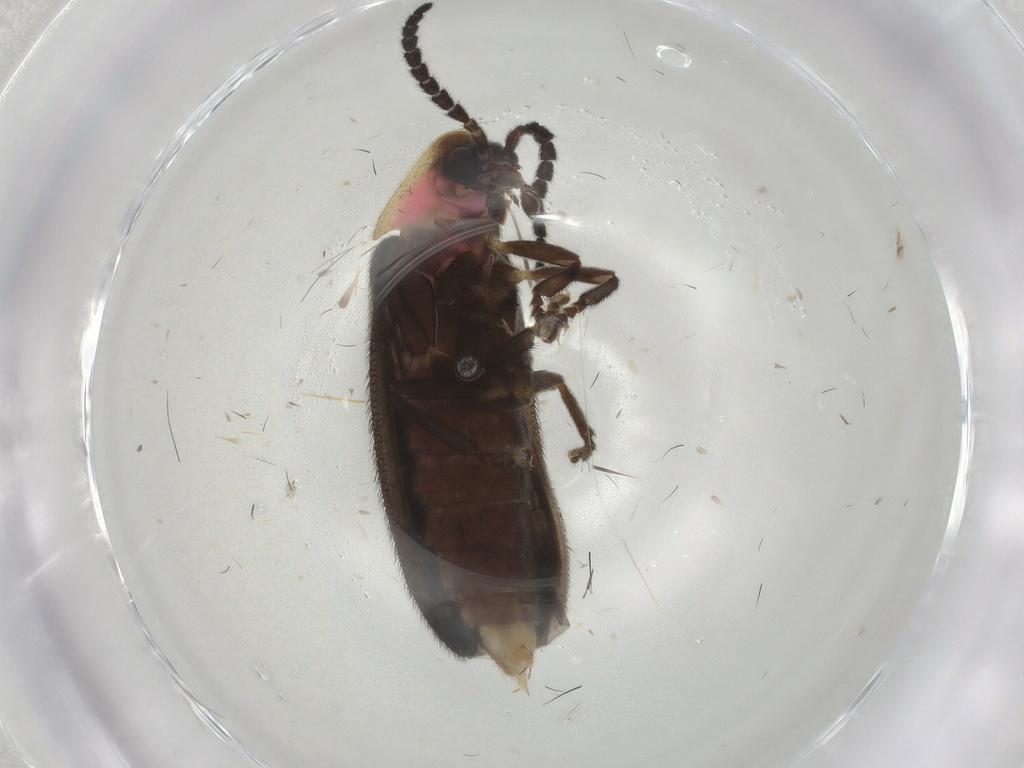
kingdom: Animalia
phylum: Arthropoda
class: Insecta
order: Coleoptera
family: Lampyridae
